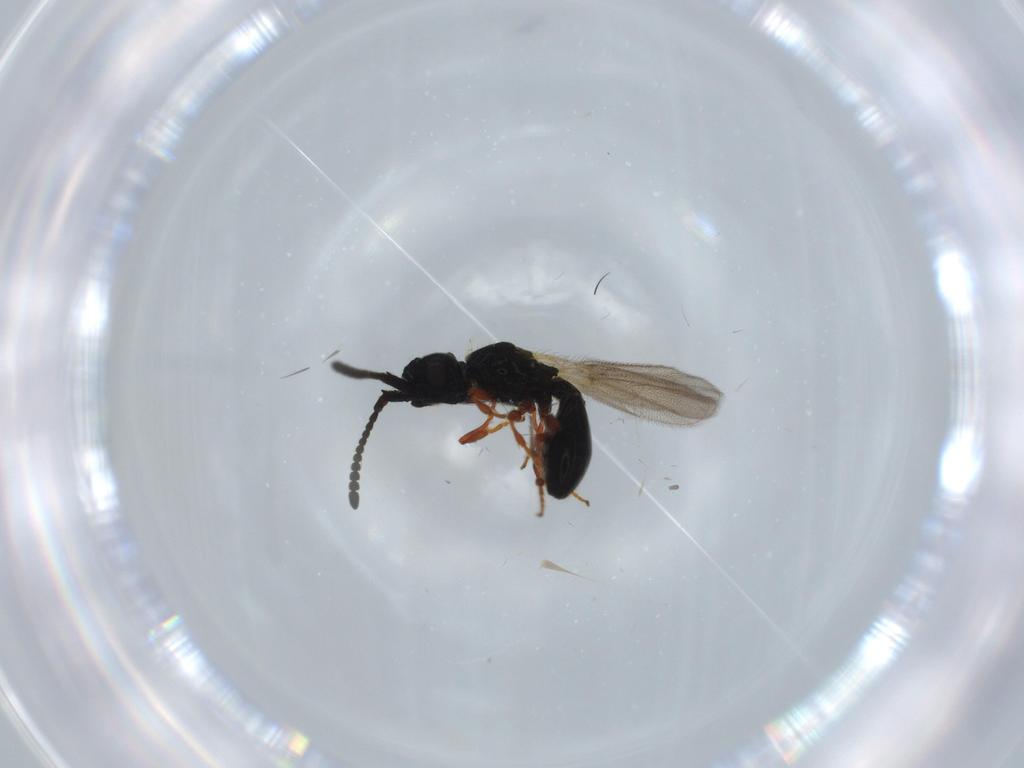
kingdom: Animalia
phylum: Arthropoda
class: Insecta
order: Hymenoptera
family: Diapriidae
